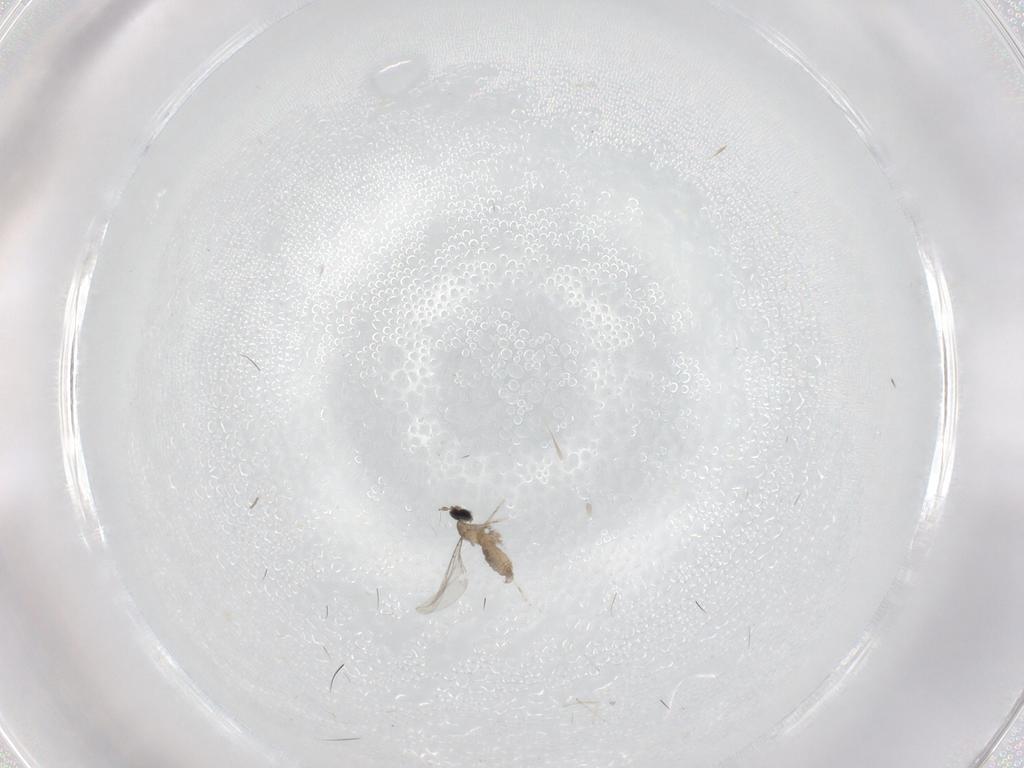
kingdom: Animalia
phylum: Arthropoda
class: Insecta
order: Diptera
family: Cecidomyiidae
